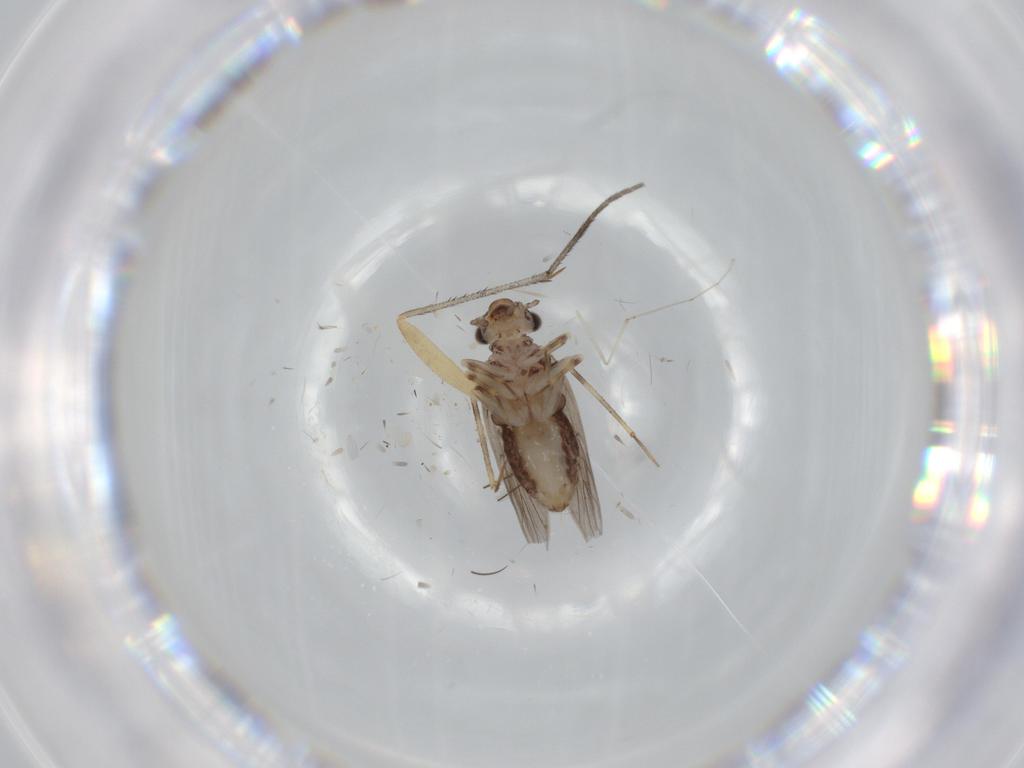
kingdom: Animalia
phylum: Arthropoda
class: Insecta
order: Psocodea
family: Lepidopsocidae
